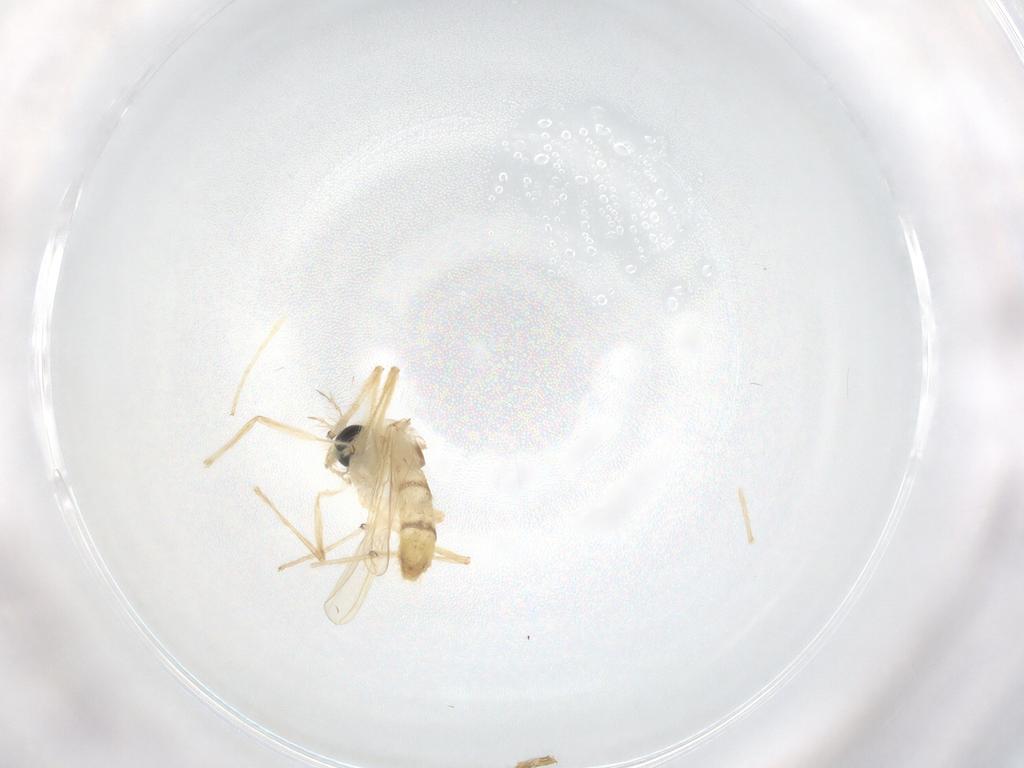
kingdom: Animalia
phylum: Arthropoda
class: Insecta
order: Diptera
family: Chironomidae
